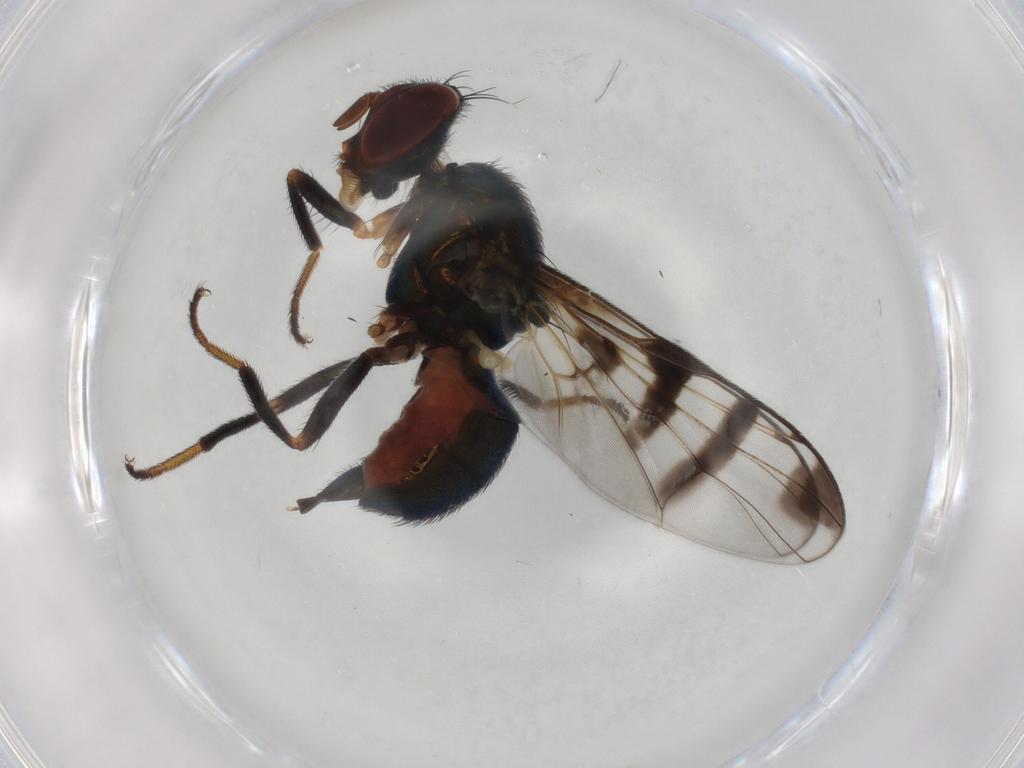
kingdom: Animalia
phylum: Arthropoda
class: Insecta
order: Diptera
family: Platystomatidae
